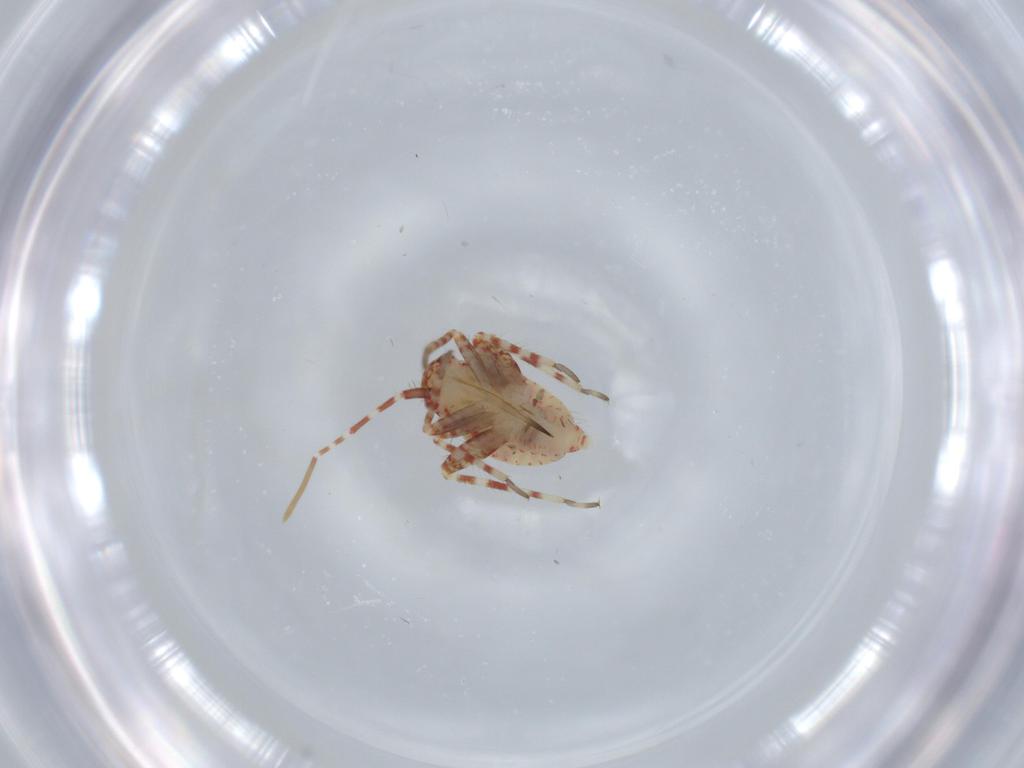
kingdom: Animalia
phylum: Arthropoda
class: Insecta
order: Hemiptera
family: Miridae
